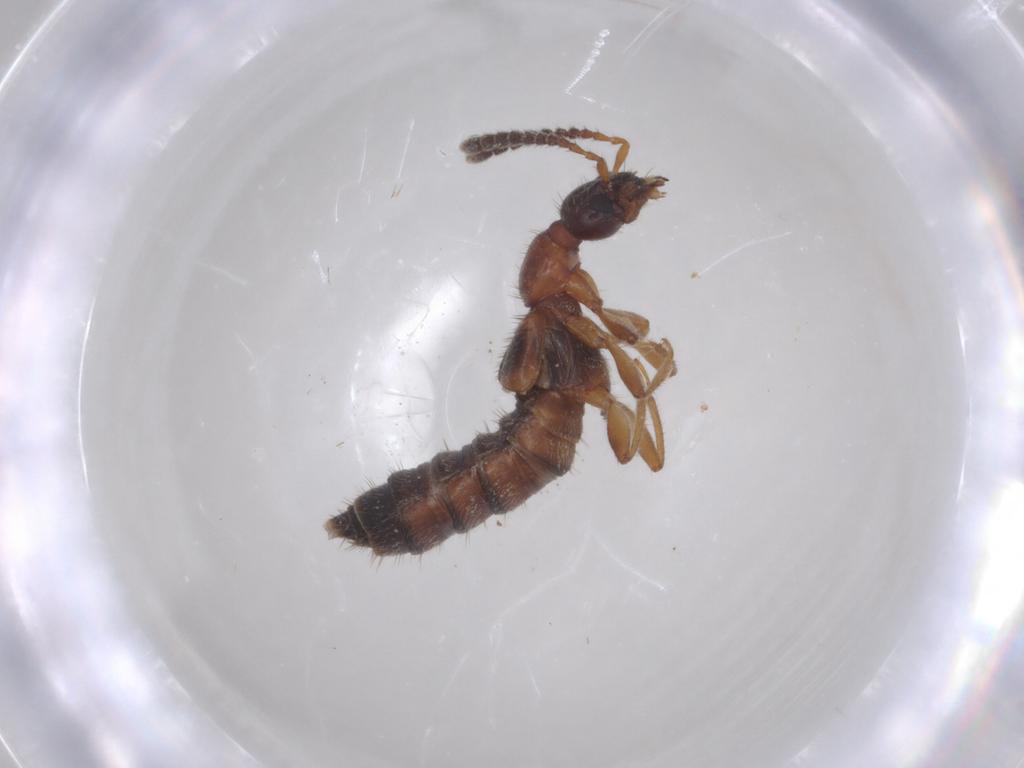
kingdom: Animalia
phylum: Arthropoda
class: Insecta
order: Coleoptera
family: Staphylinidae
